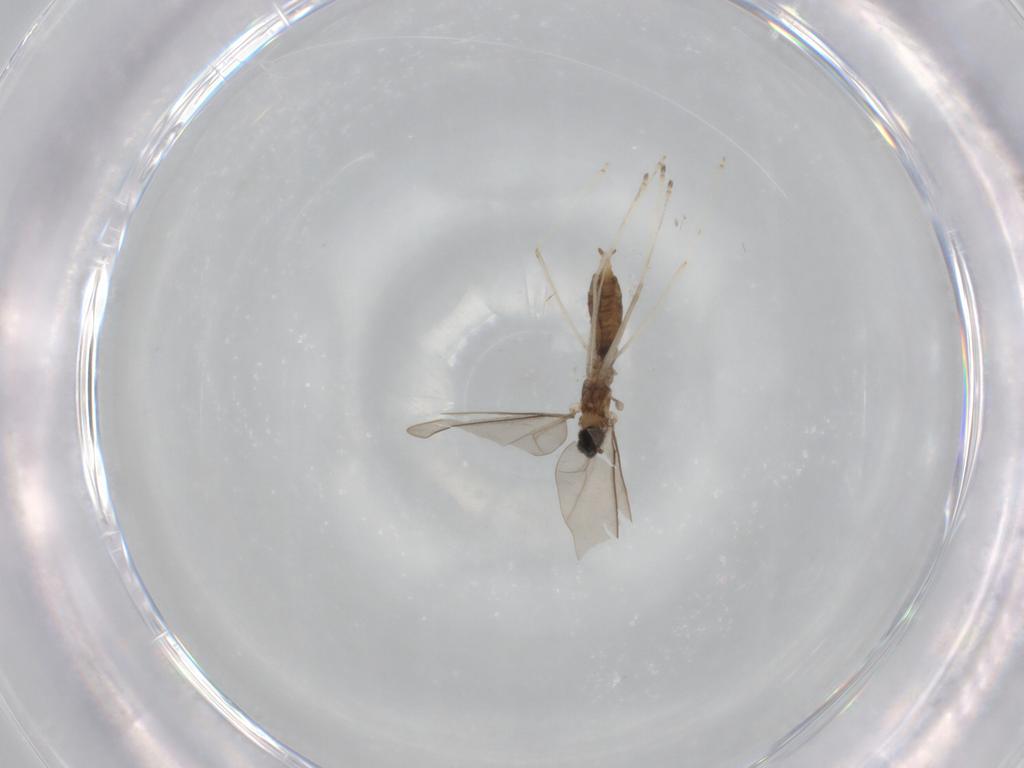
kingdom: Animalia
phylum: Arthropoda
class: Insecta
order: Diptera
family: Cecidomyiidae
